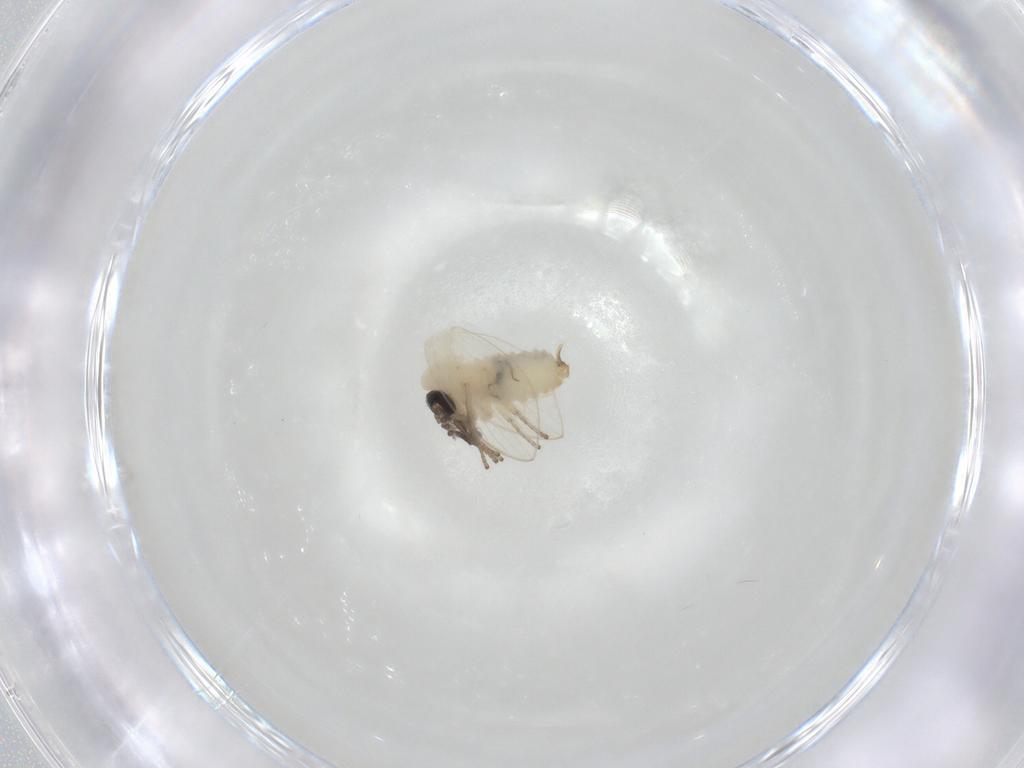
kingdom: Animalia
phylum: Arthropoda
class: Insecta
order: Diptera
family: Psychodidae
